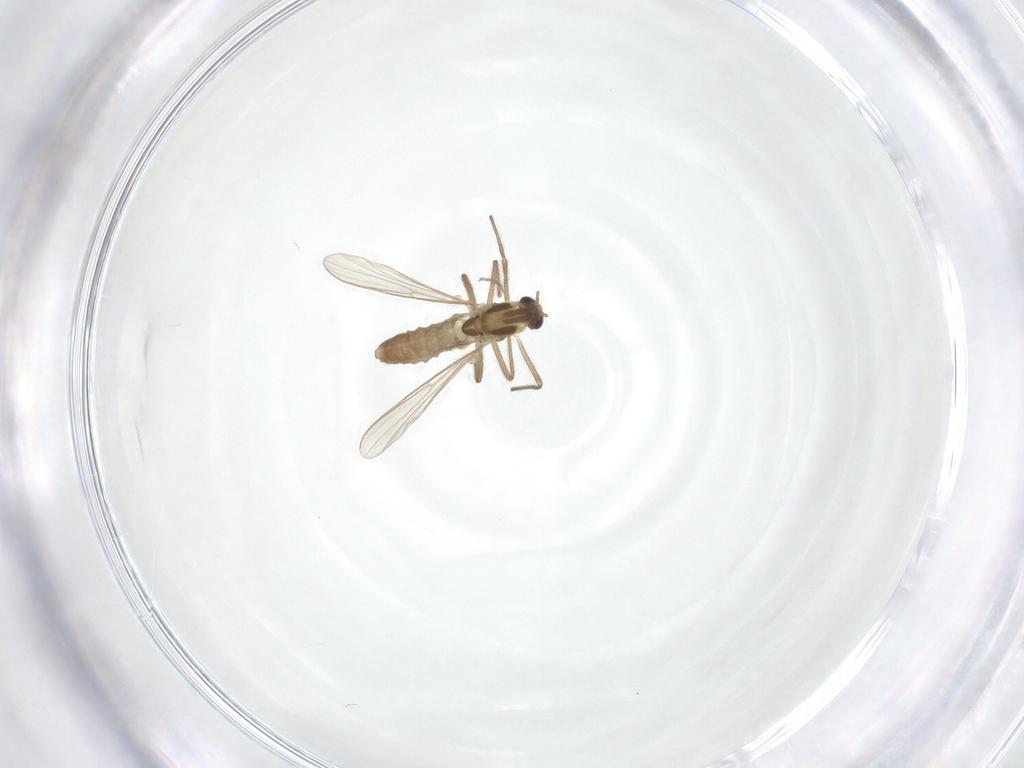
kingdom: Animalia
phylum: Arthropoda
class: Insecta
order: Diptera
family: Chironomidae
